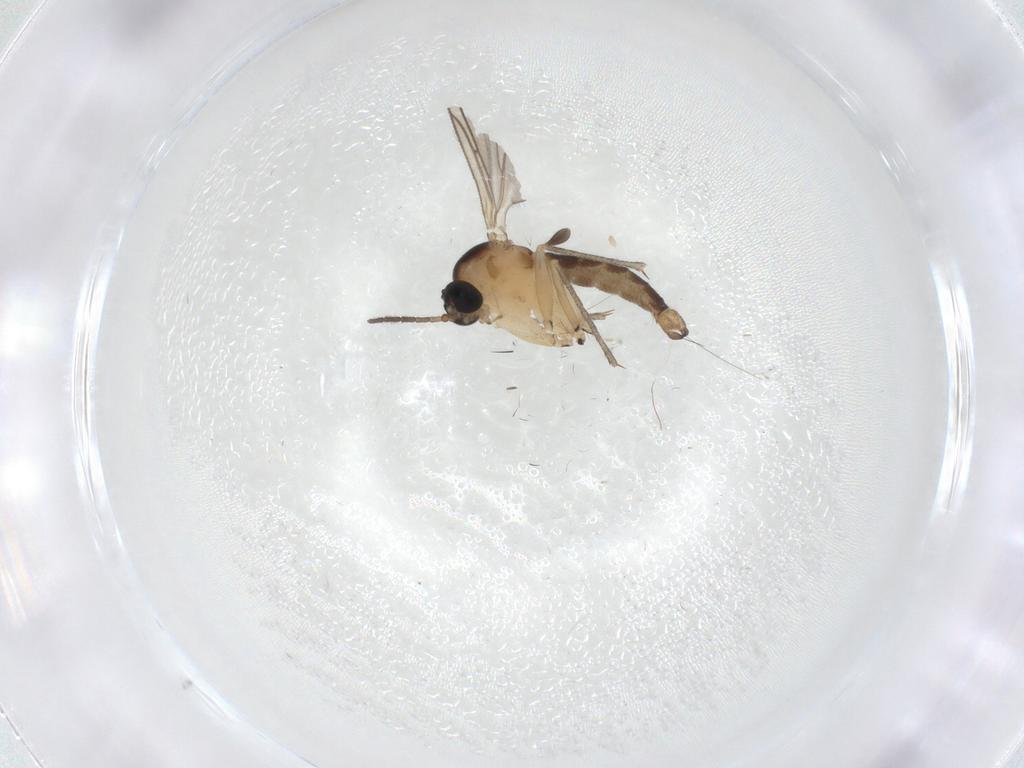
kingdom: Animalia
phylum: Arthropoda
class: Insecta
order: Diptera
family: Sciaridae
